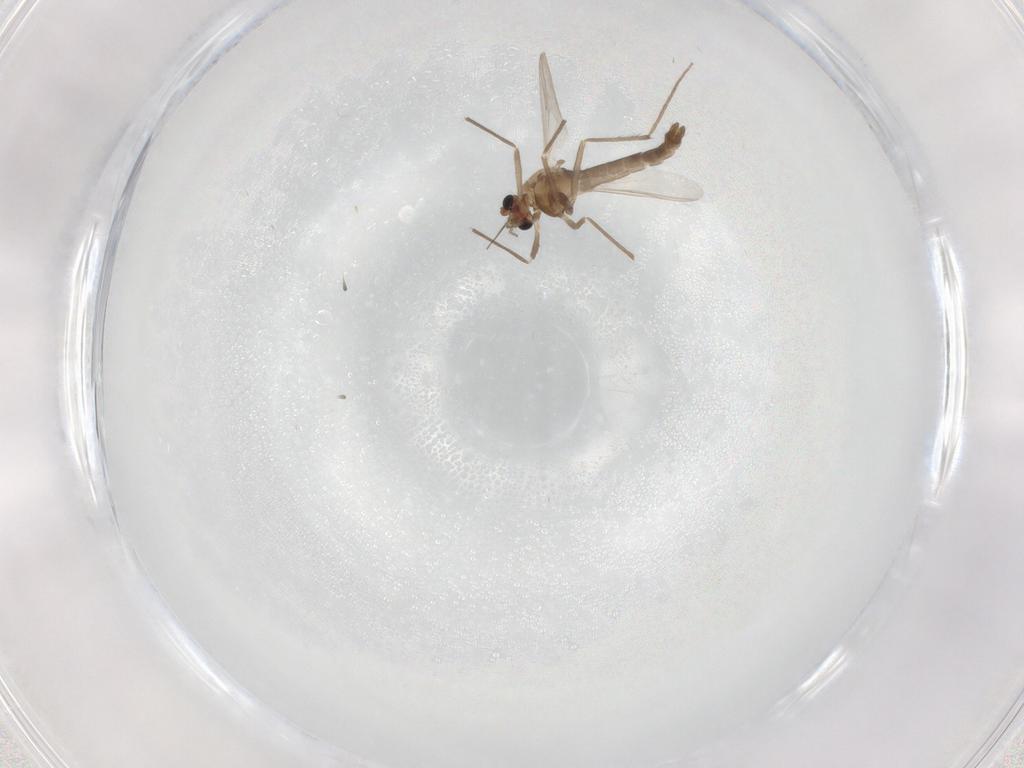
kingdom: Animalia
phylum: Arthropoda
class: Insecta
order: Diptera
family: Chironomidae
